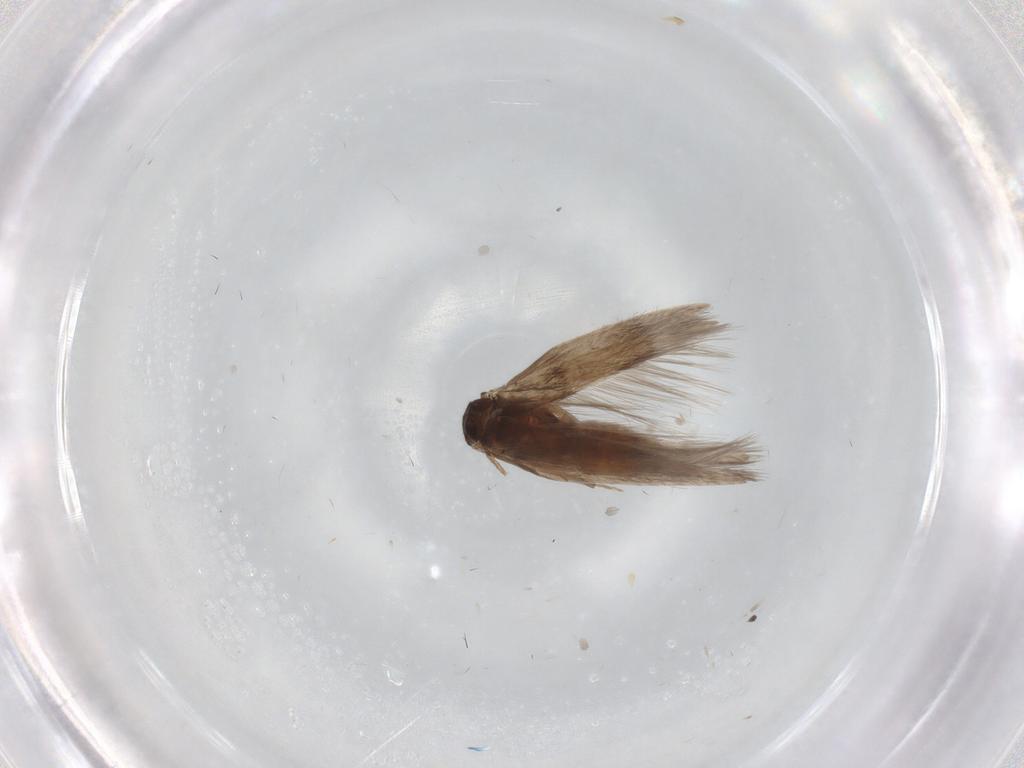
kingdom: Animalia
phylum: Arthropoda
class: Insecta
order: Trichoptera
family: Hydroptilidae
